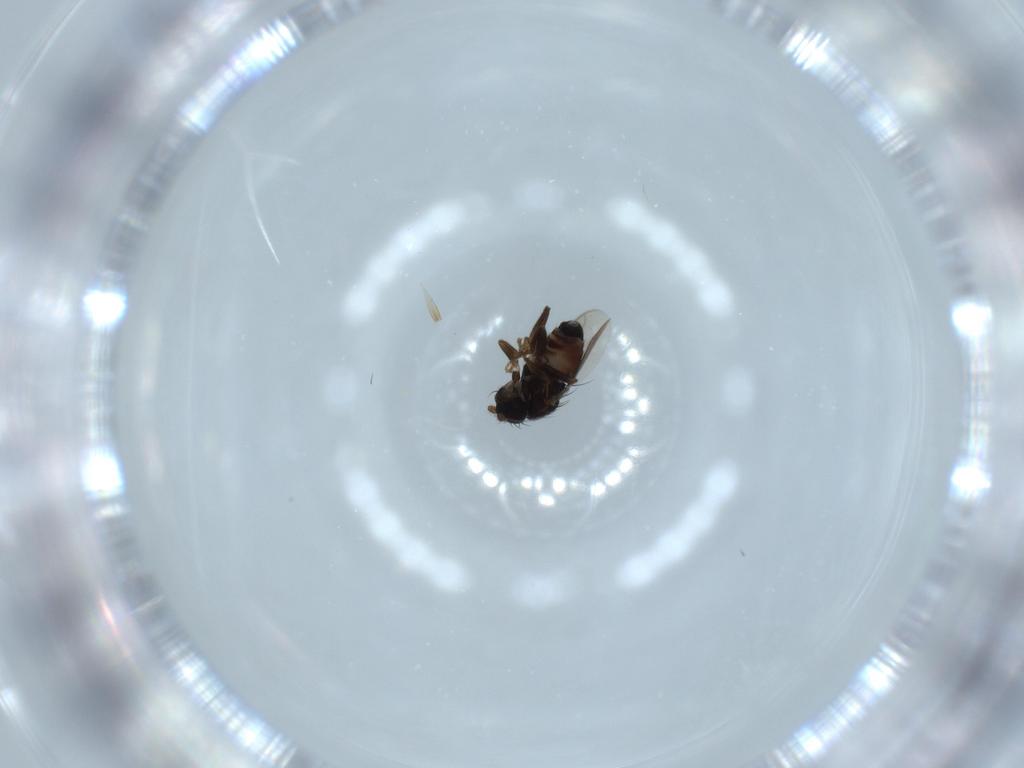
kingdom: Animalia
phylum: Arthropoda
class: Insecta
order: Diptera
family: Sphaeroceridae
